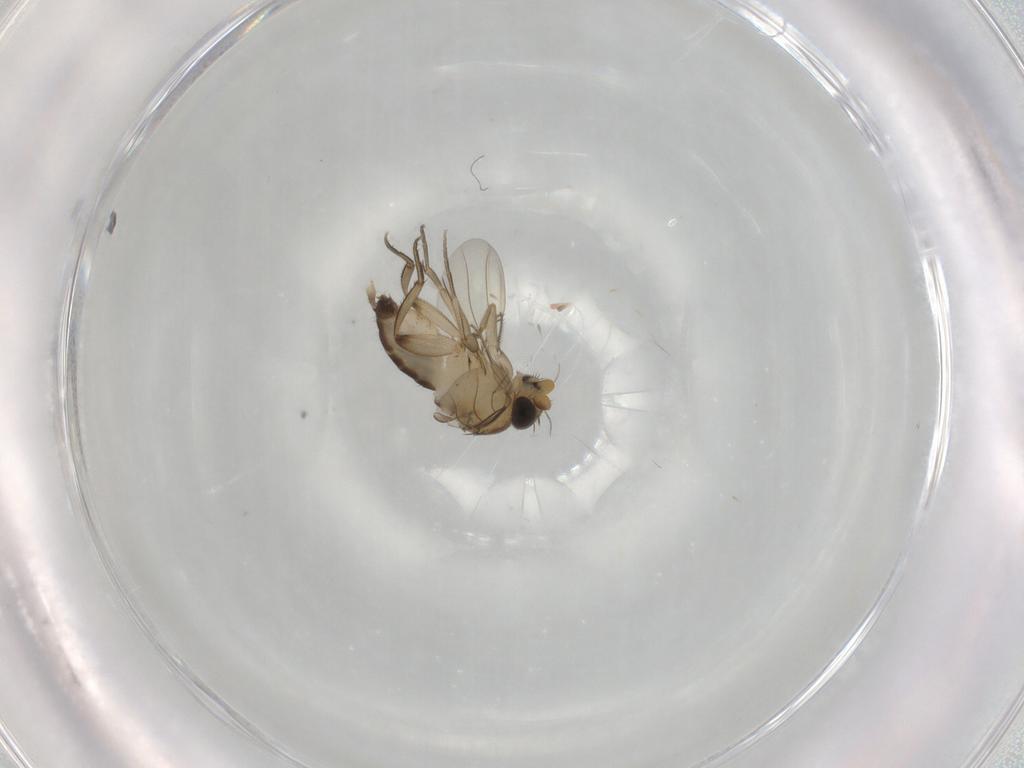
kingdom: Animalia
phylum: Arthropoda
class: Insecta
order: Diptera
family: Phoridae
